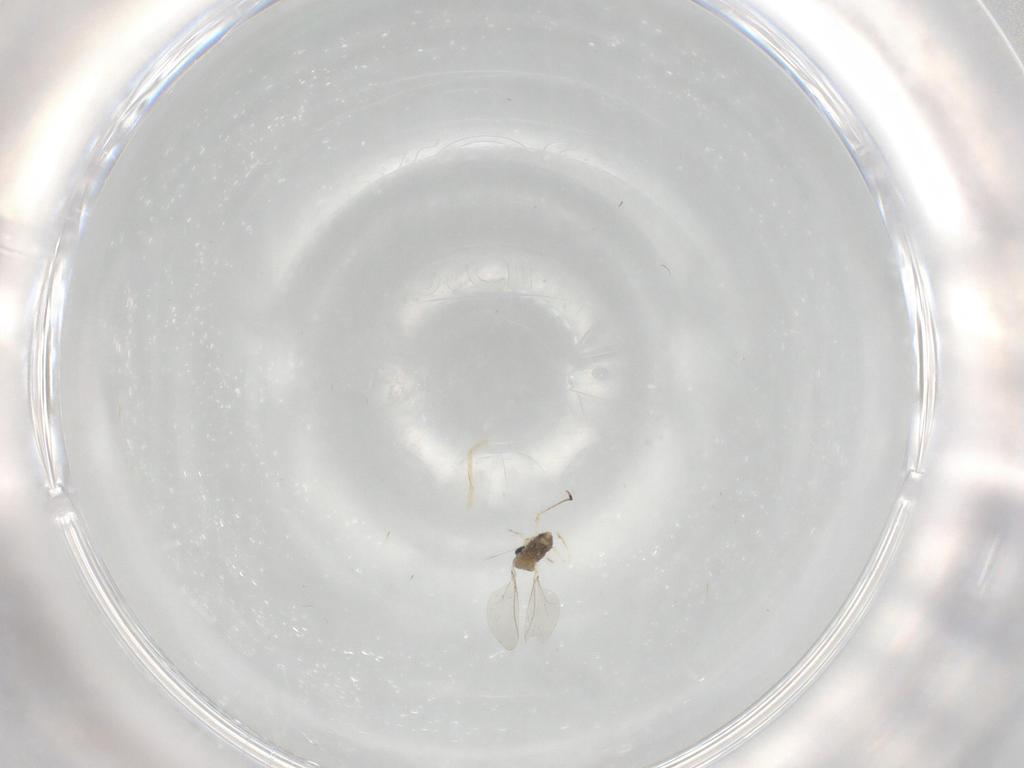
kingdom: Animalia
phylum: Arthropoda
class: Insecta
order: Diptera
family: Cecidomyiidae
